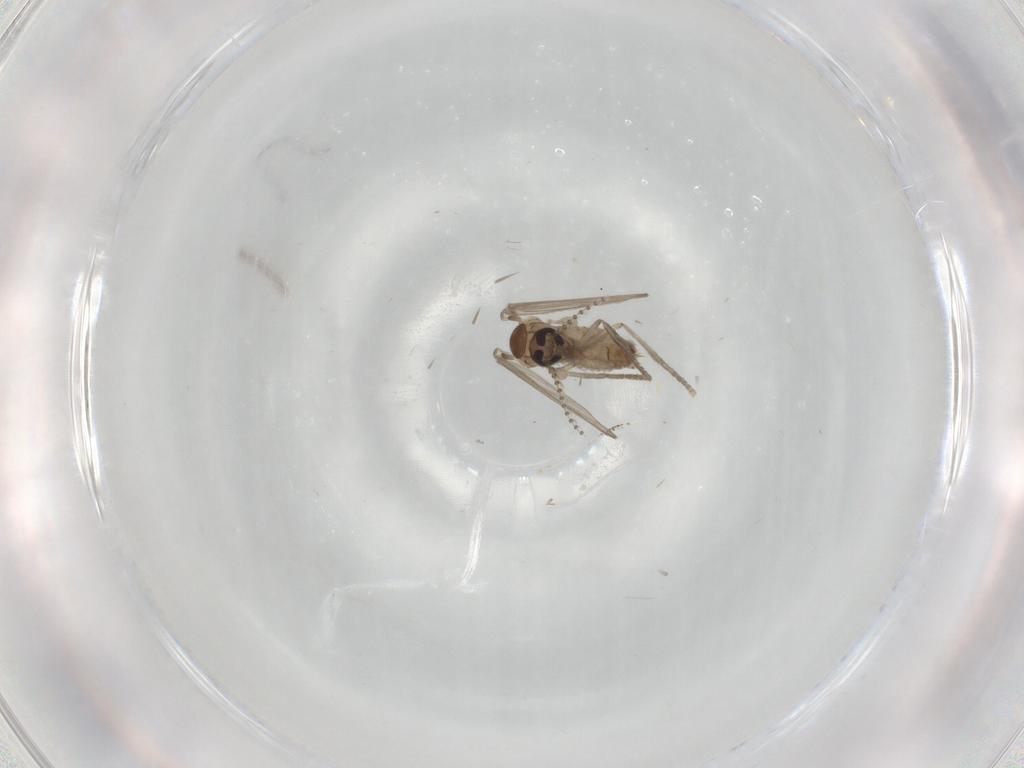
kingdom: Animalia
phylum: Arthropoda
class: Insecta
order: Diptera
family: Psychodidae
